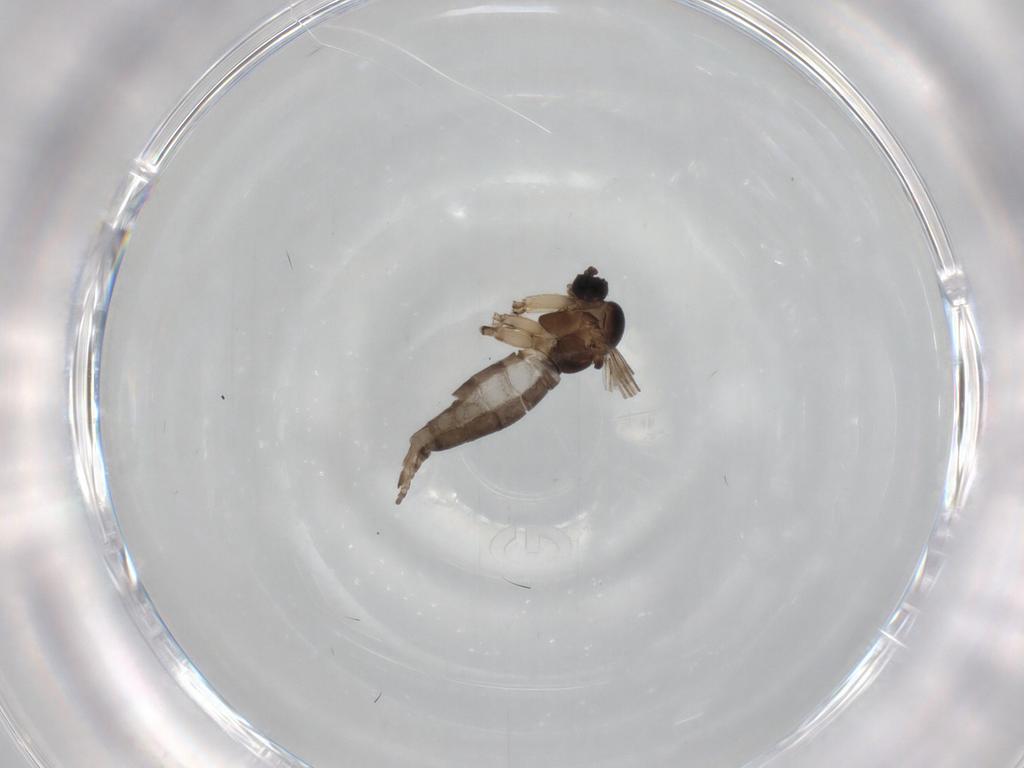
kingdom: Animalia
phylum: Arthropoda
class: Insecta
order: Diptera
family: Sciaridae
